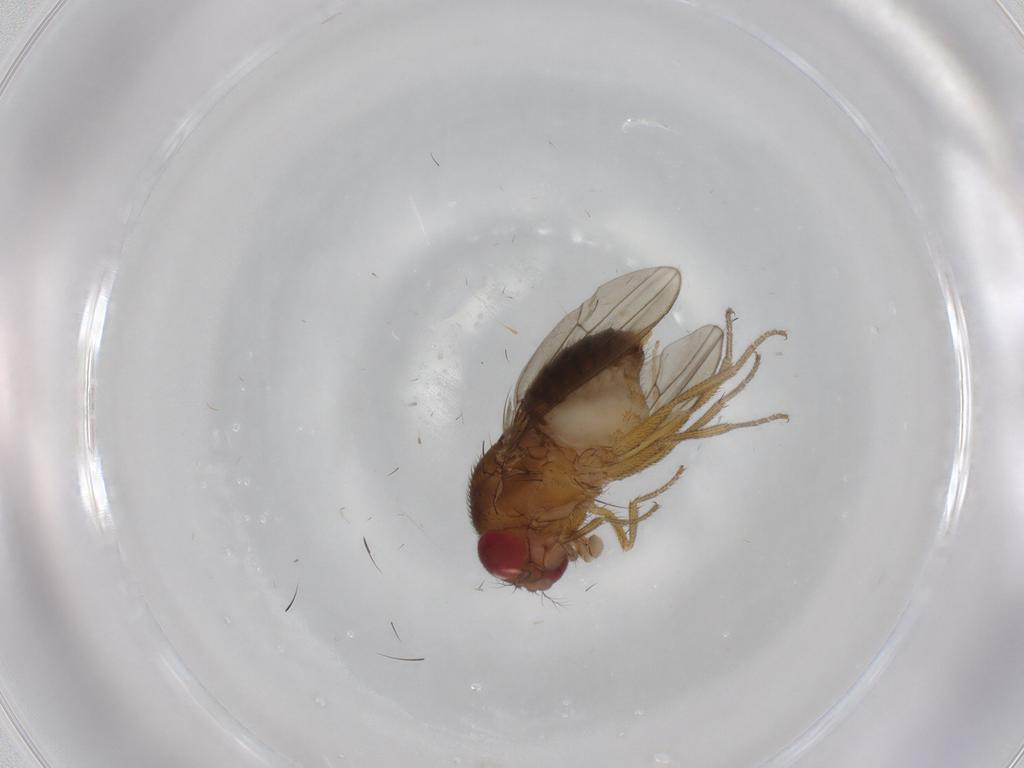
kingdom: Animalia
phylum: Arthropoda
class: Insecta
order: Diptera
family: Drosophilidae
